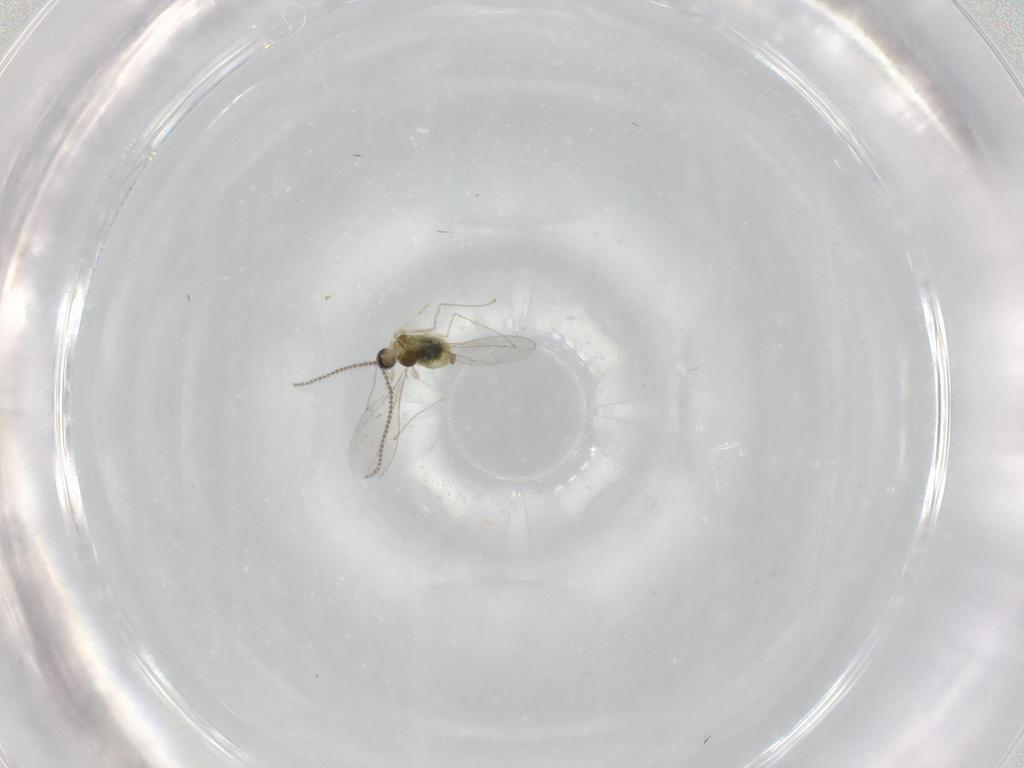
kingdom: Animalia
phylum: Arthropoda
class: Insecta
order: Diptera
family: Cecidomyiidae
